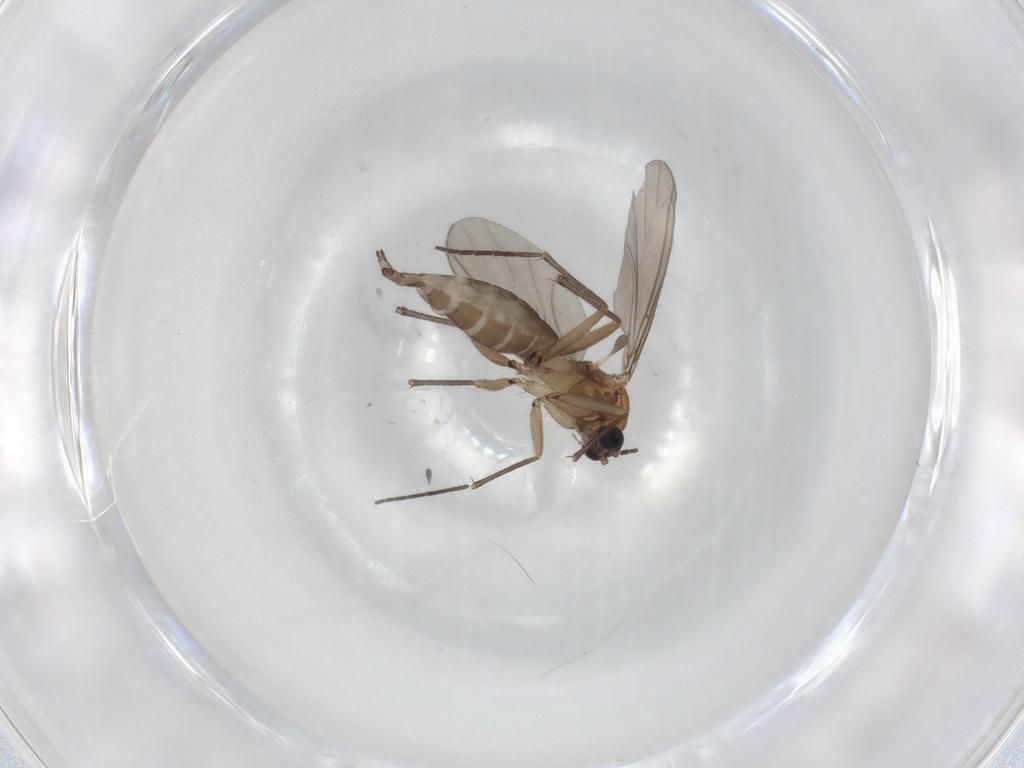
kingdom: Animalia
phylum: Arthropoda
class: Insecta
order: Diptera
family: Sciaridae
